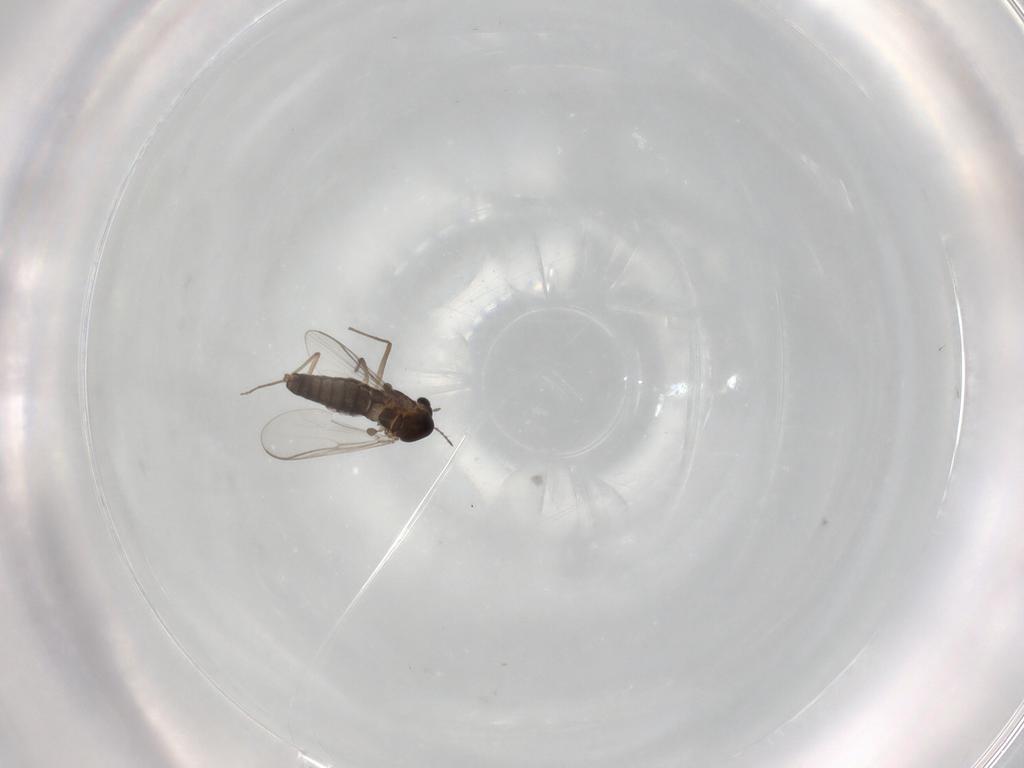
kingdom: Animalia
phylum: Arthropoda
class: Insecta
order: Diptera
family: Chironomidae
